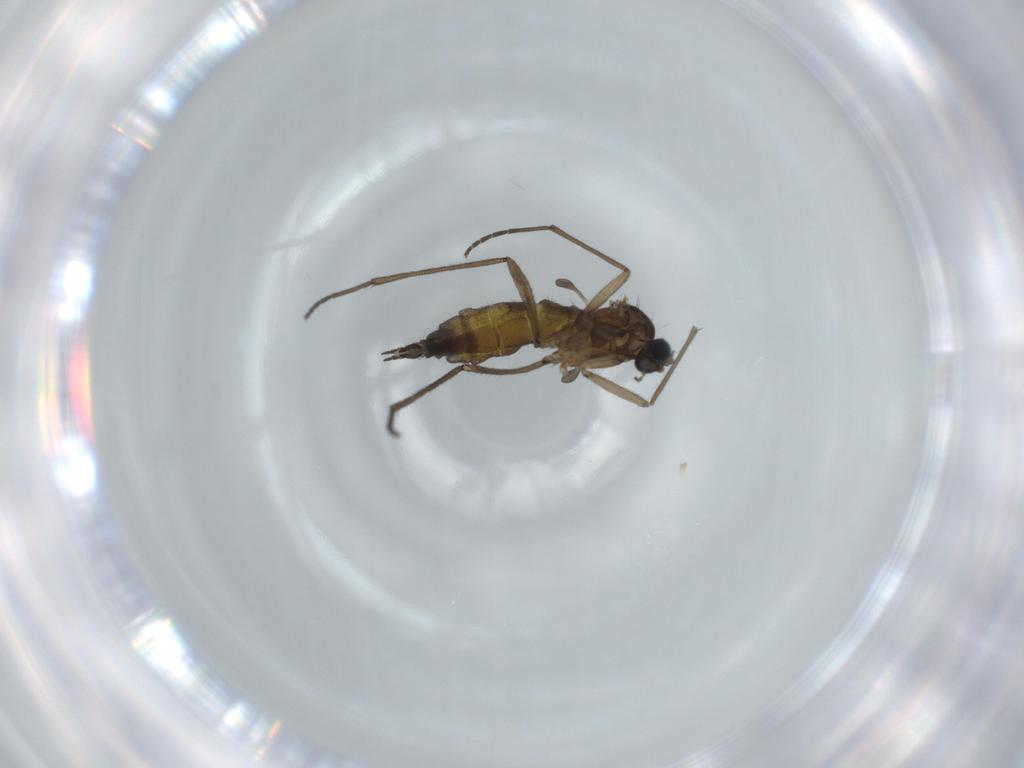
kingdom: Animalia
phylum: Arthropoda
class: Insecta
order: Diptera
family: Sciaridae
